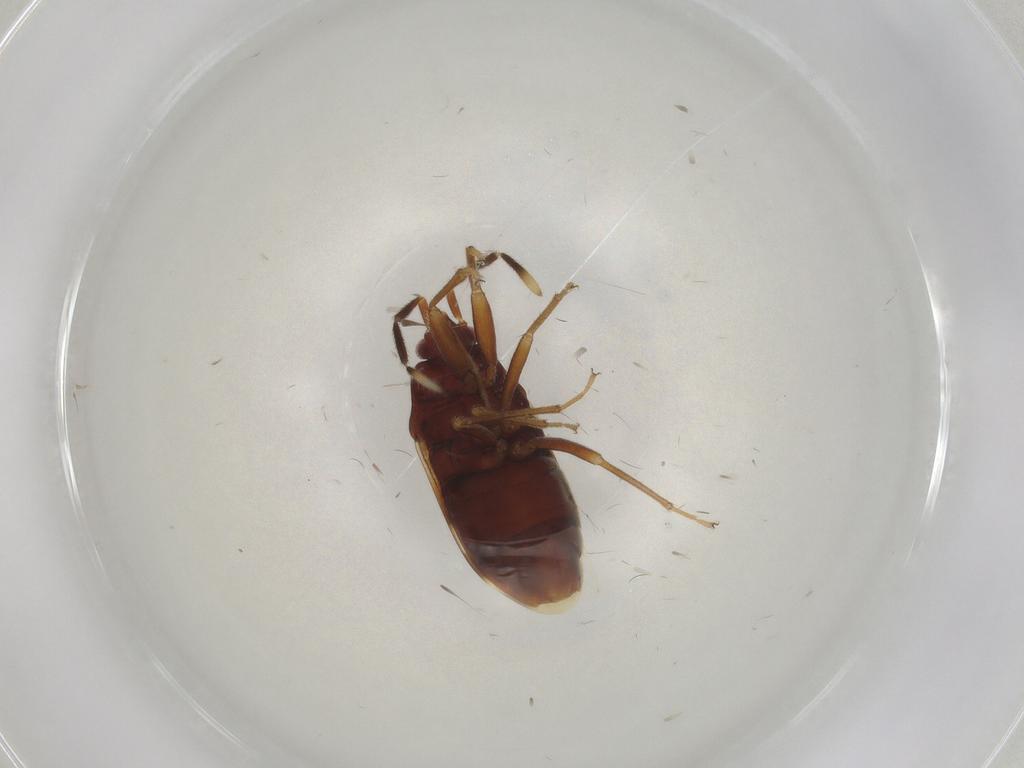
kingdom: Animalia
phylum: Arthropoda
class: Insecta
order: Hemiptera
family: Rhyparochromidae
